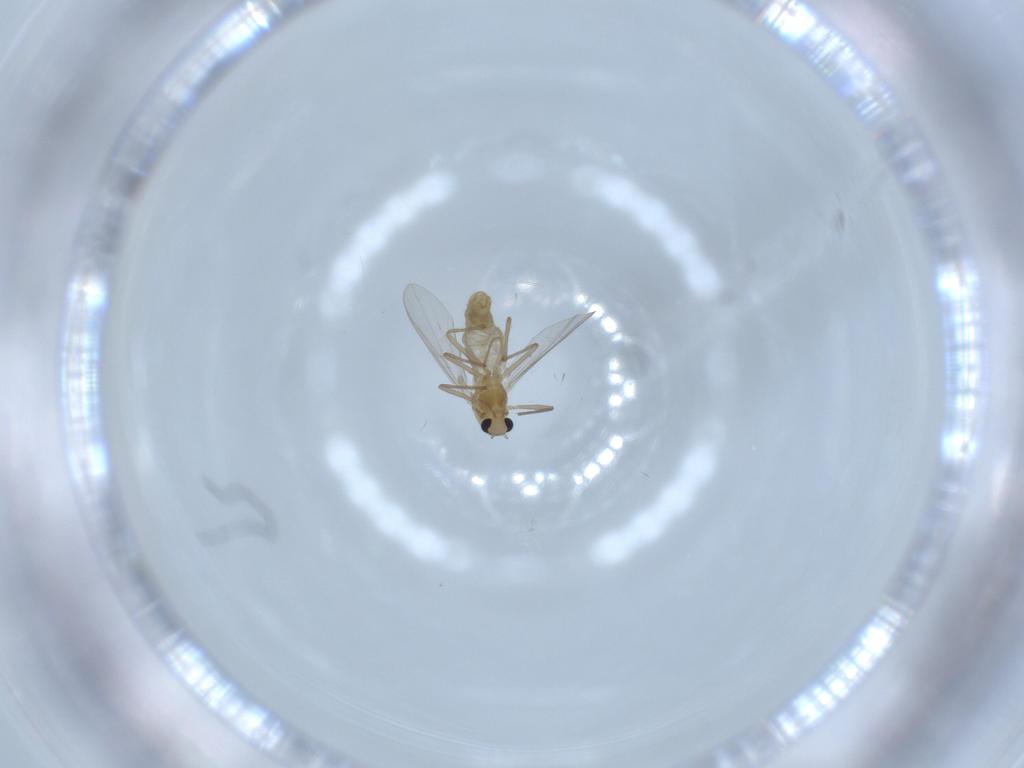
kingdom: Animalia
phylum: Arthropoda
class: Insecta
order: Diptera
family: Chironomidae
